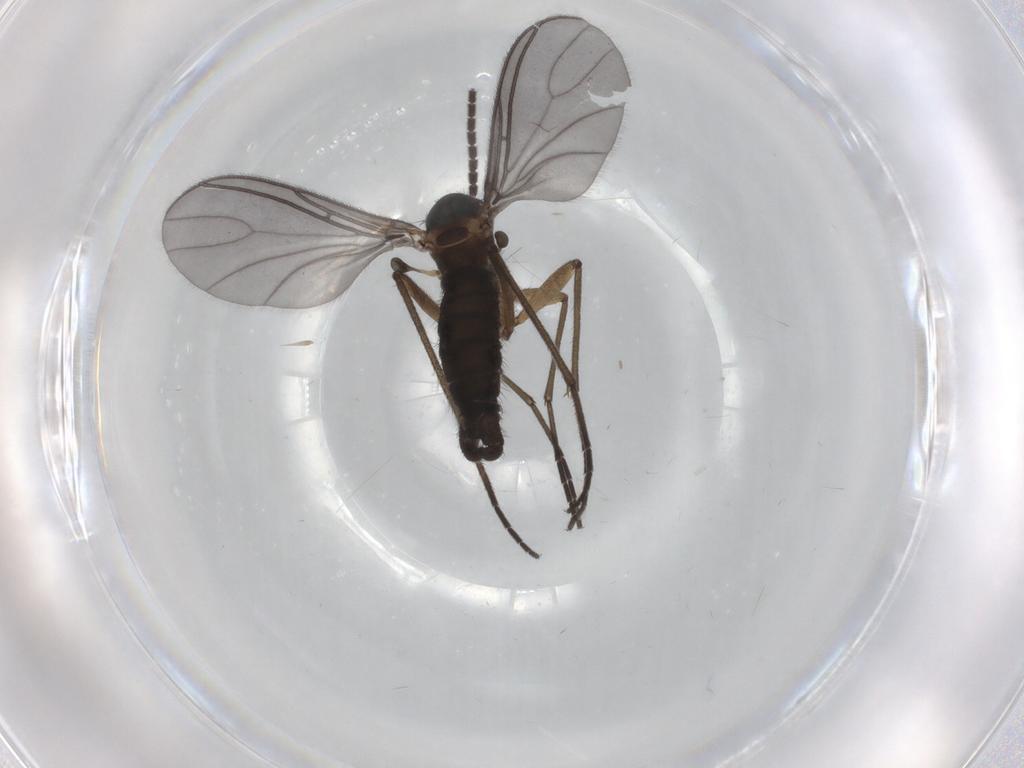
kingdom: Animalia
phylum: Arthropoda
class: Insecta
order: Diptera
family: Sciaridae
